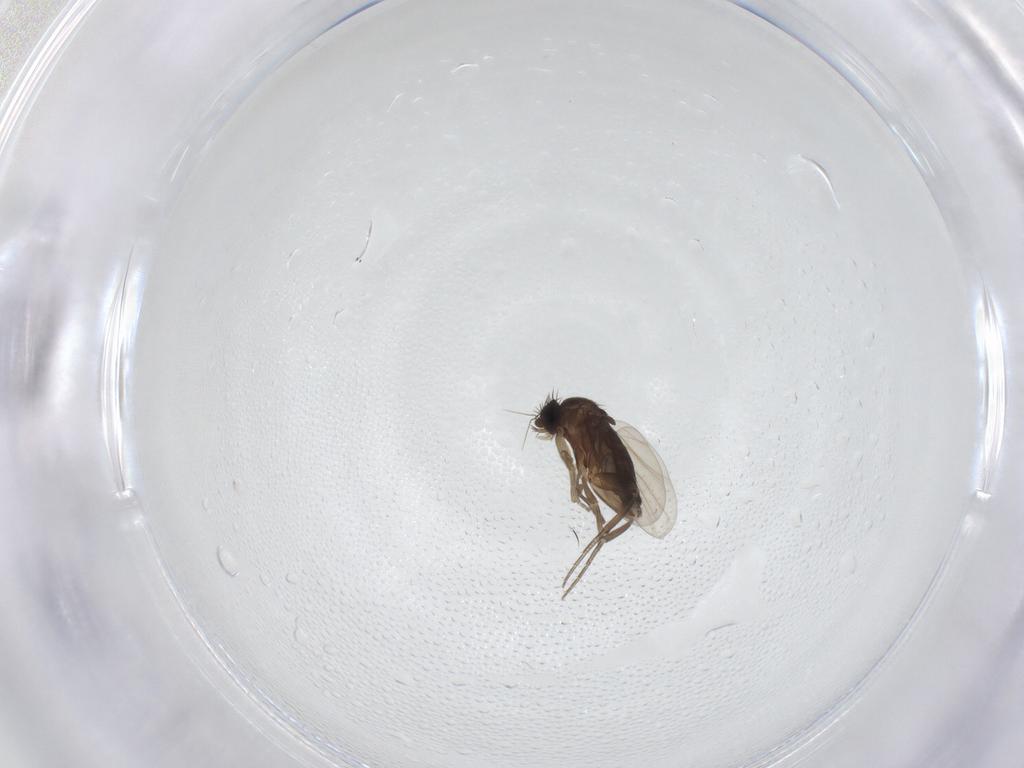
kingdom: Animalia
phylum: Arthropoda
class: Insecta
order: Diptera
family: Phoridae
